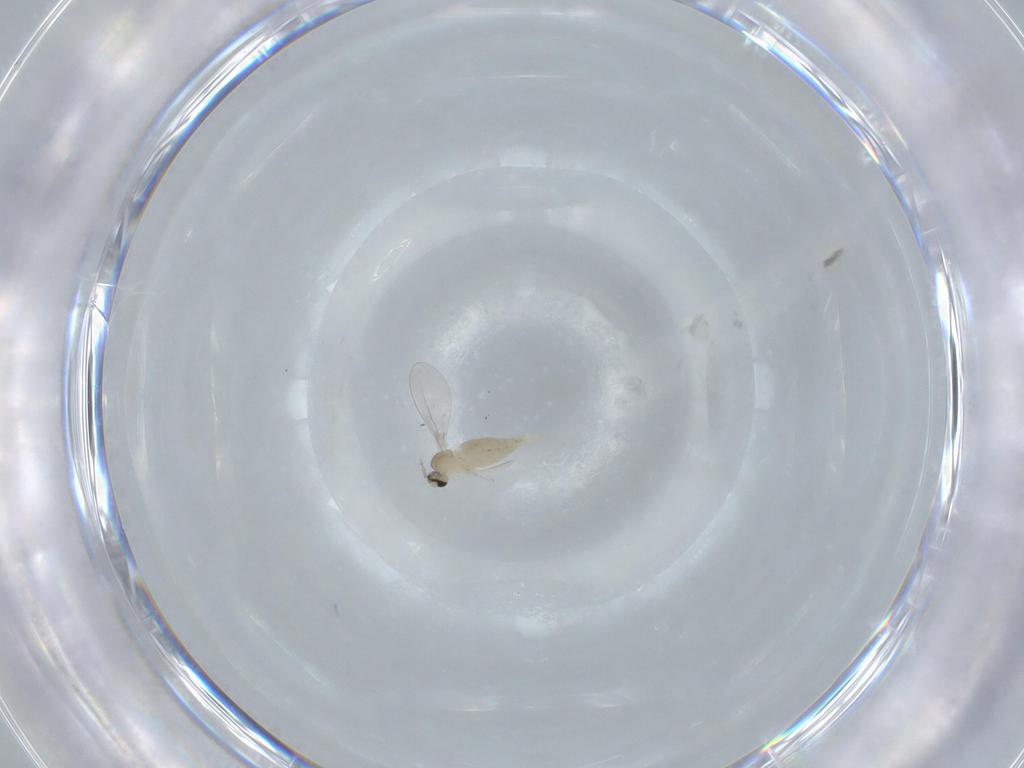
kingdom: Animalia
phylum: Arthropoda
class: Insecta
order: Diptera
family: Cecidomyiidae
